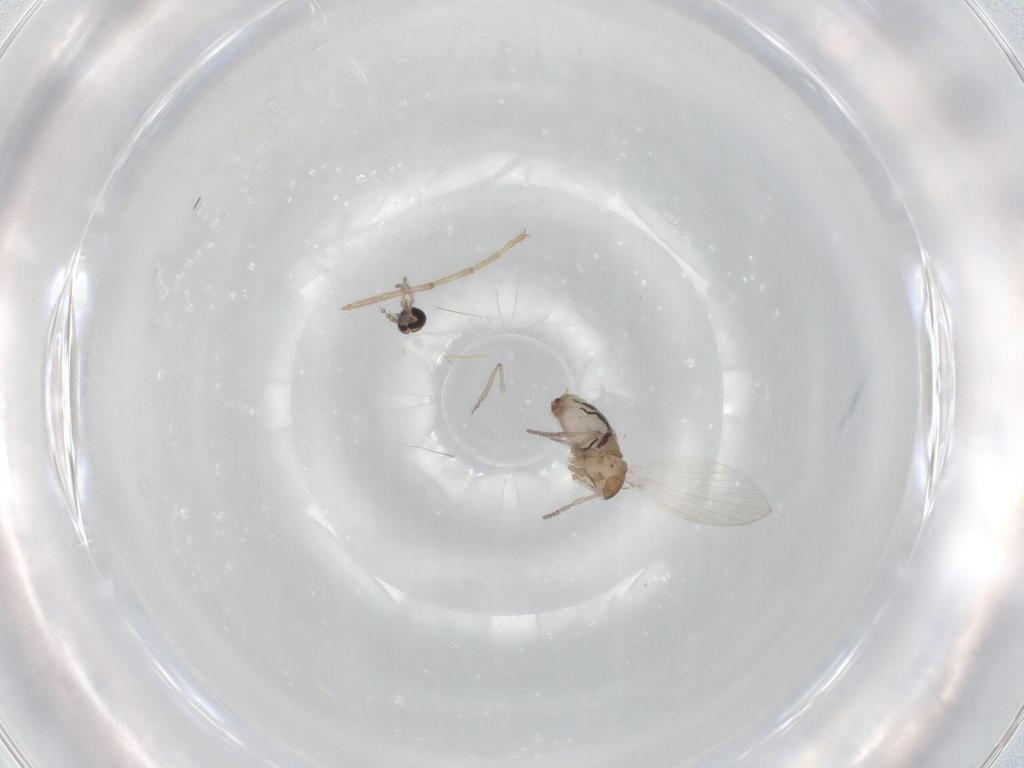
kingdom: Animalia
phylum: Arthropoda
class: Insecta
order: Diptera
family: Psychodidae
